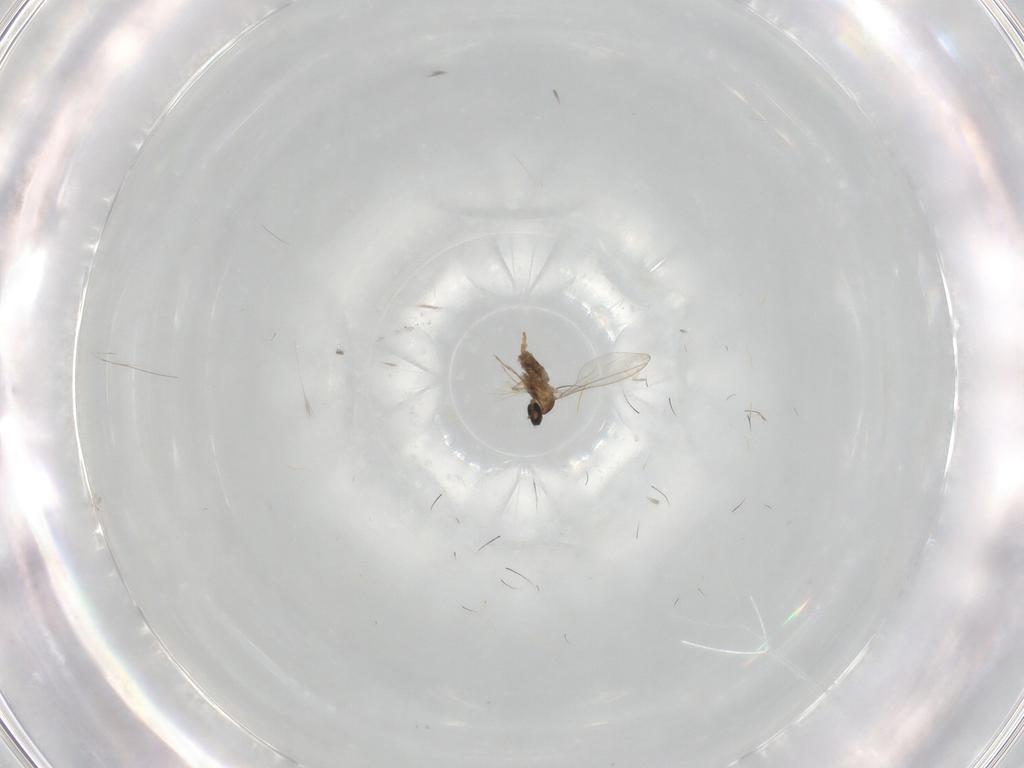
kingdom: Animalia
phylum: Arthropoda
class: Insecta
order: Diptera
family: Cecidomyiidae
